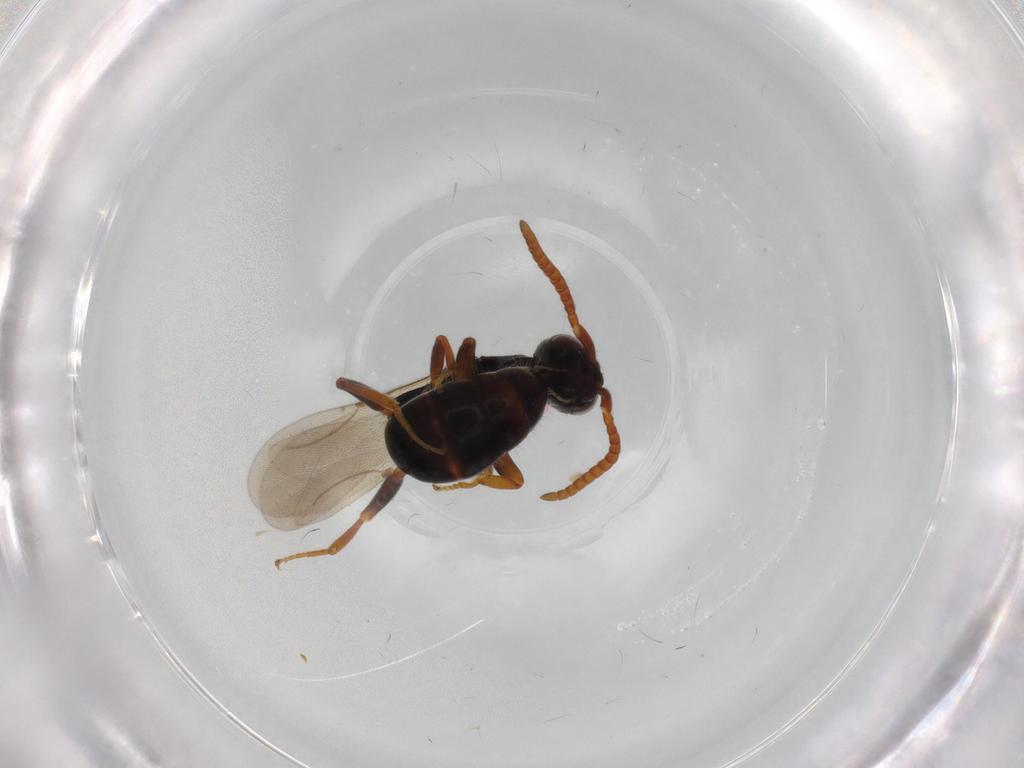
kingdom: Animalia
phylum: Arthropoda
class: Insecta
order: Hymenoptera
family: Bethylidae
